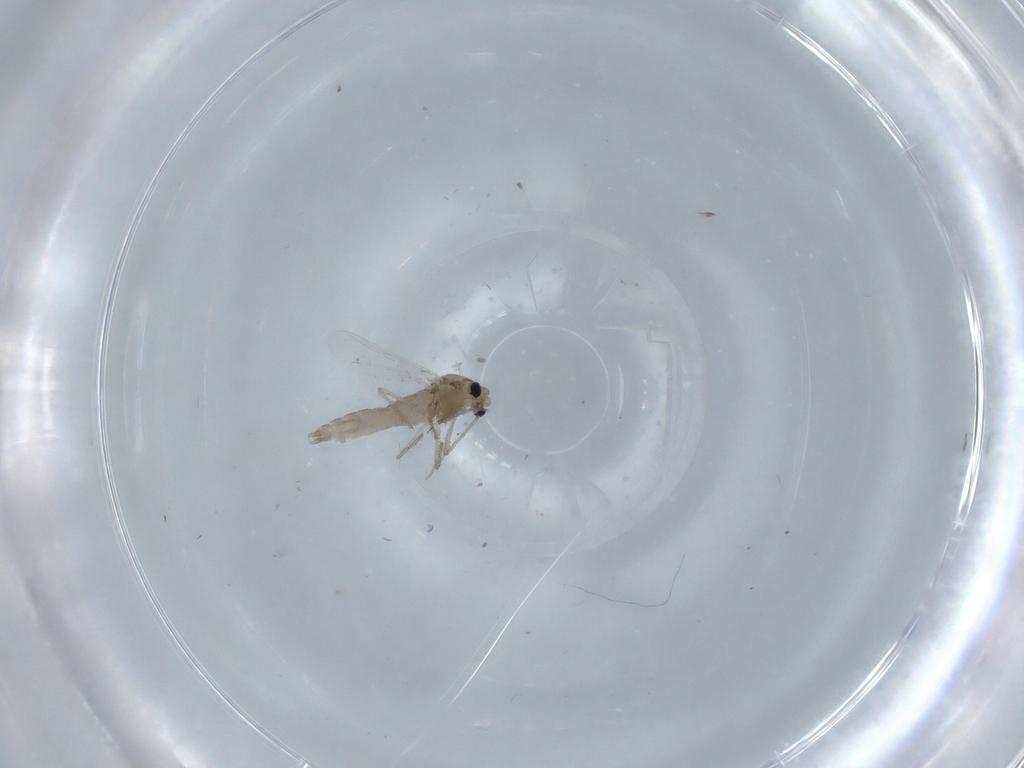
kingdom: Animalia
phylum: Arthropoda
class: Insecta
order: Diptera
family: Chironomidae
